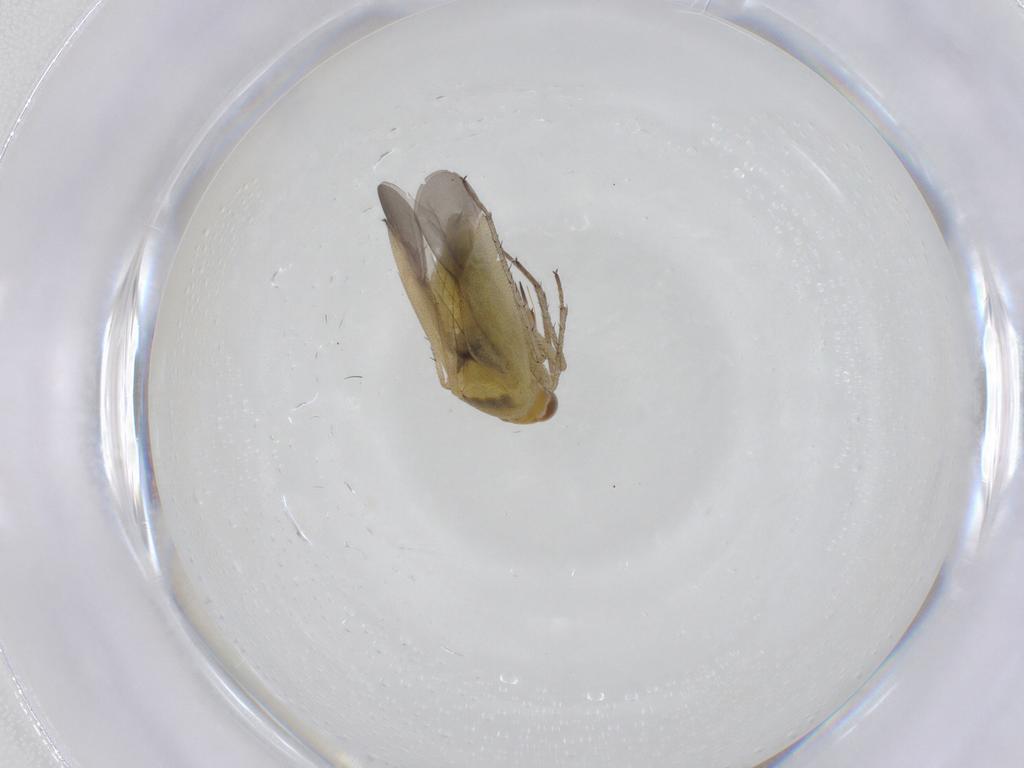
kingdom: Animalia
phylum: Arthropoda
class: Insecta
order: Hemiptera
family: Miridae
